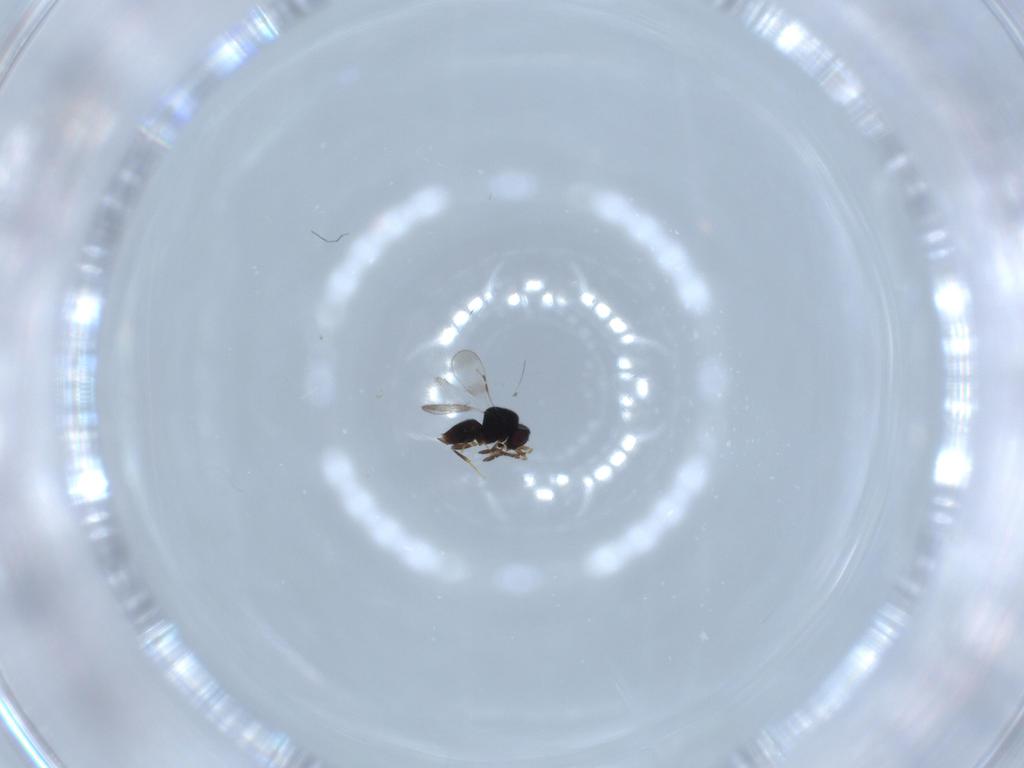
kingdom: Animalia
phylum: Arthropoda
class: Insecta
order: Hymenoptera
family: Ceraphronidae
